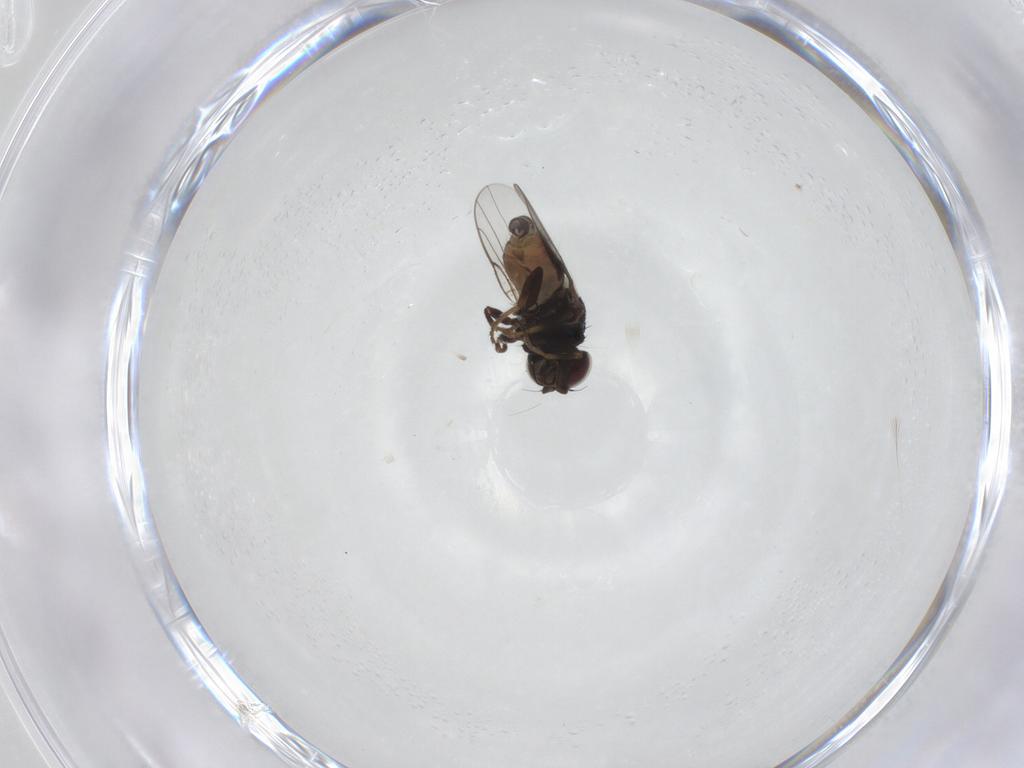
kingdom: Animalia
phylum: Arthropoda
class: Insecta
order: Diptera
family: Chloropidae
